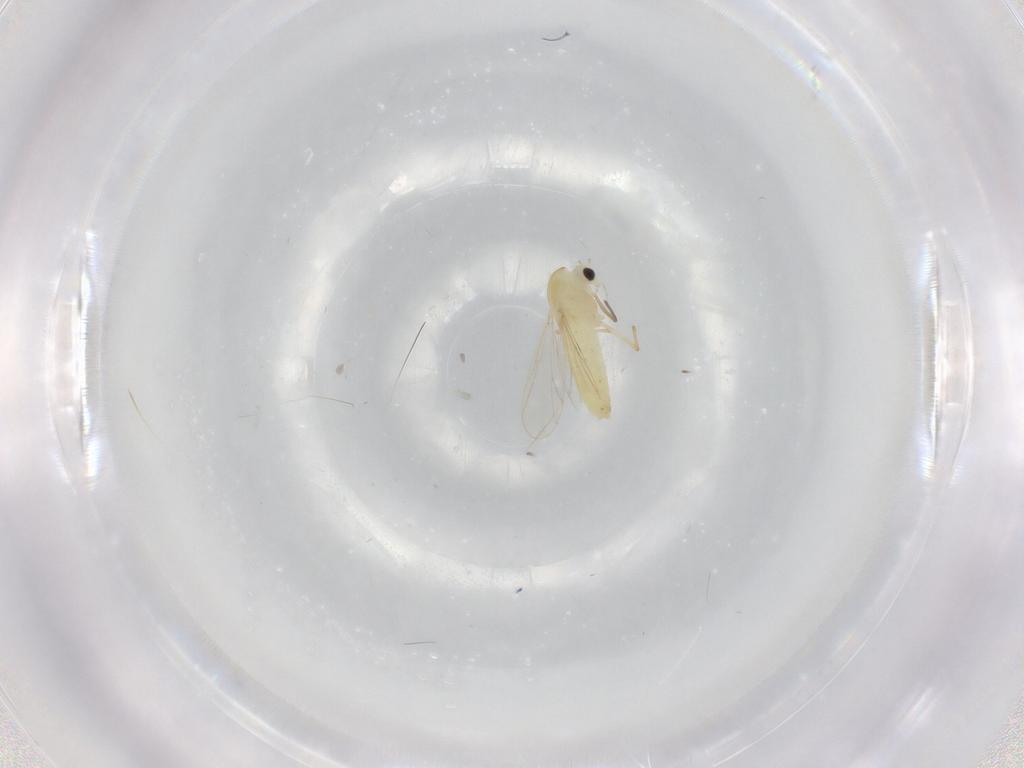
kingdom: Animalia
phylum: Arthropoda
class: Insecta
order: Diptera
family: Chironomidae
